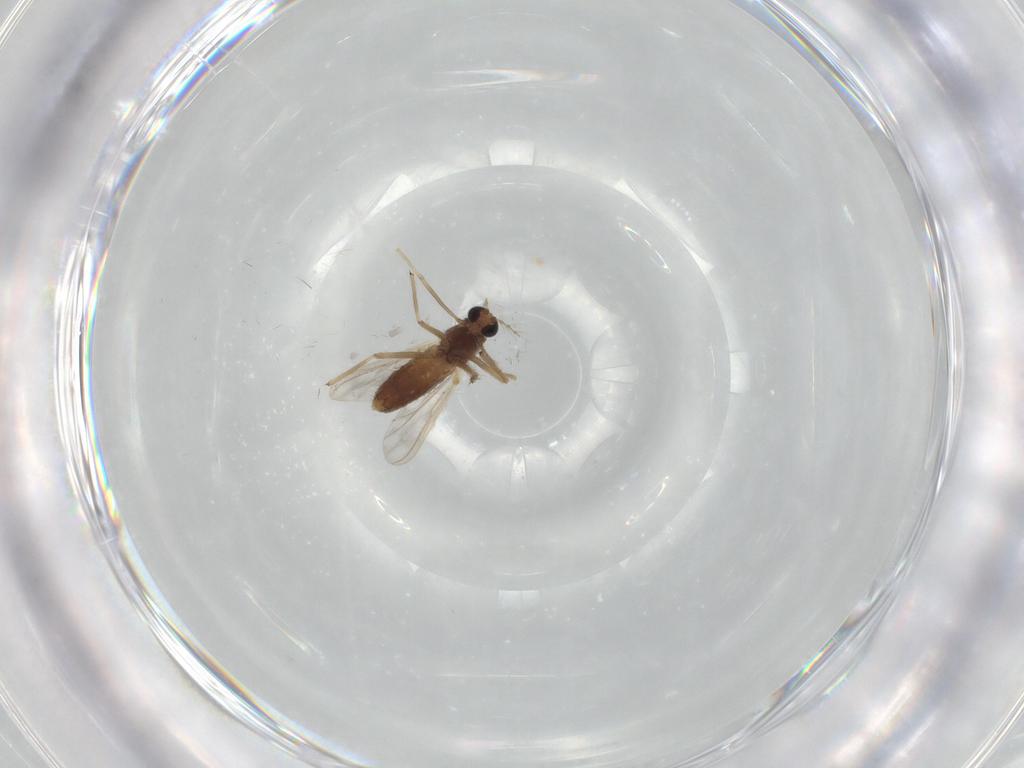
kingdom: Animalia
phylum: Arthropoda
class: Insecta
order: Diptera
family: Chironomidae
